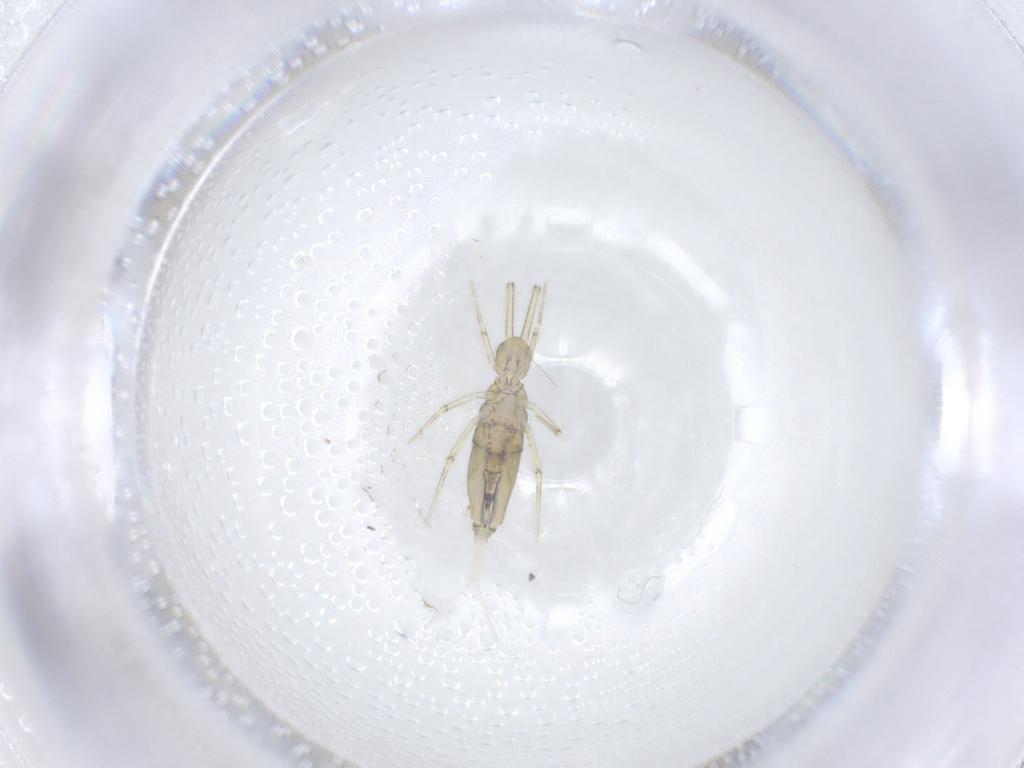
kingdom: Animalia
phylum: Arthropoda
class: Collembola
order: Entomobryomorpha
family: Paronellidae
